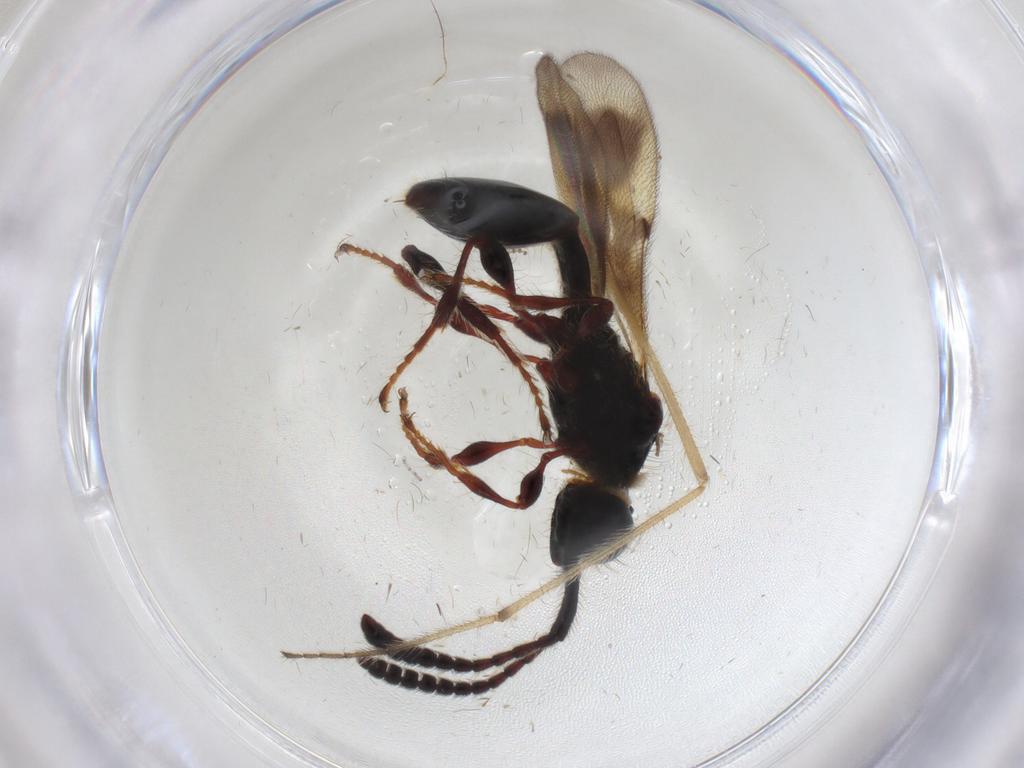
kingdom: Animalia
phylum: Arthropoda
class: Insecta
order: Hymenoptera
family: Diapriidae
